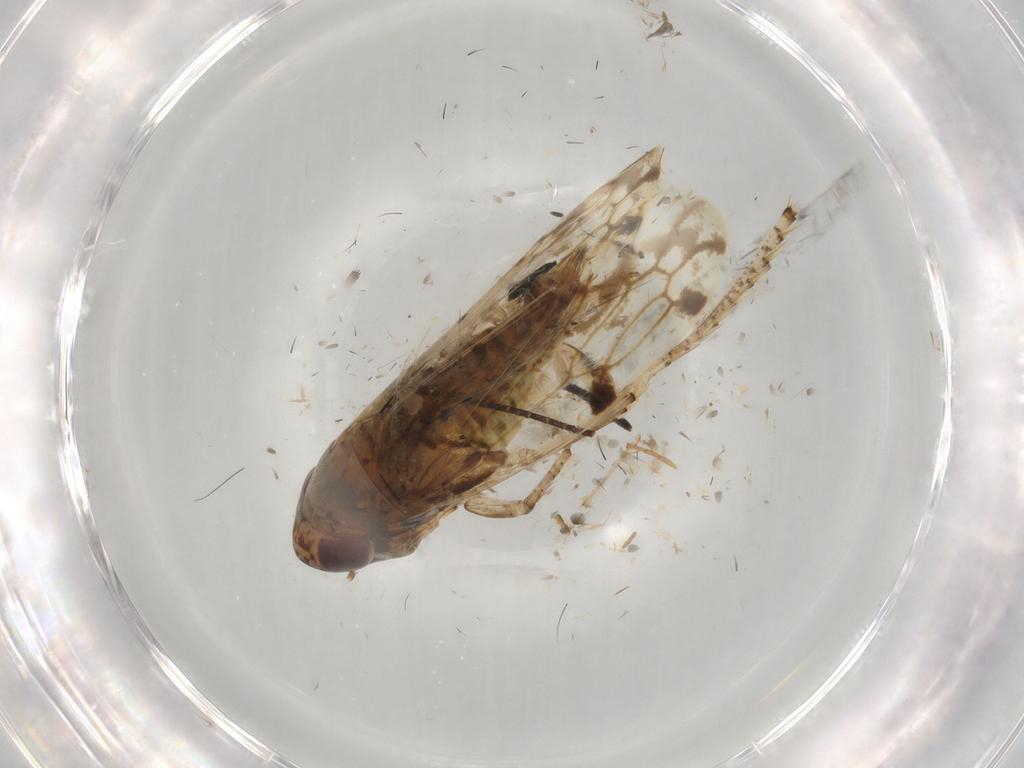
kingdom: Animalia
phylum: Arthropoda
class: Insecta
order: Hemiptera
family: Cicadellidae
